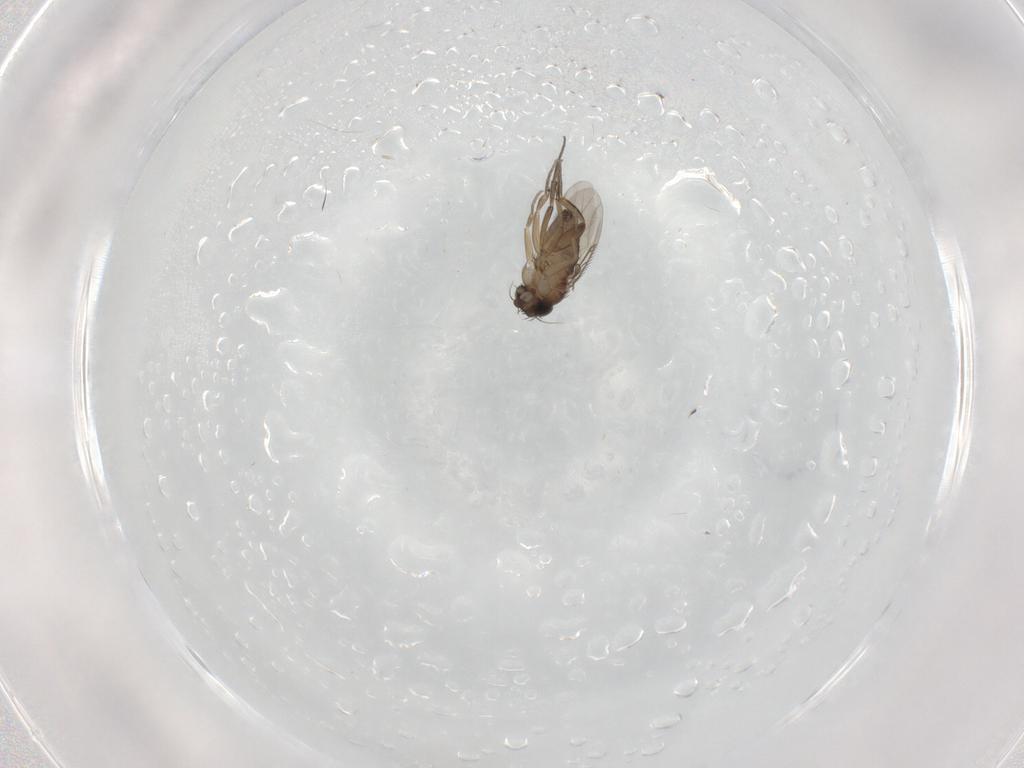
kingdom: Animalia
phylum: Arthropoda
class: Insecta
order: Diptera
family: Phoridae
